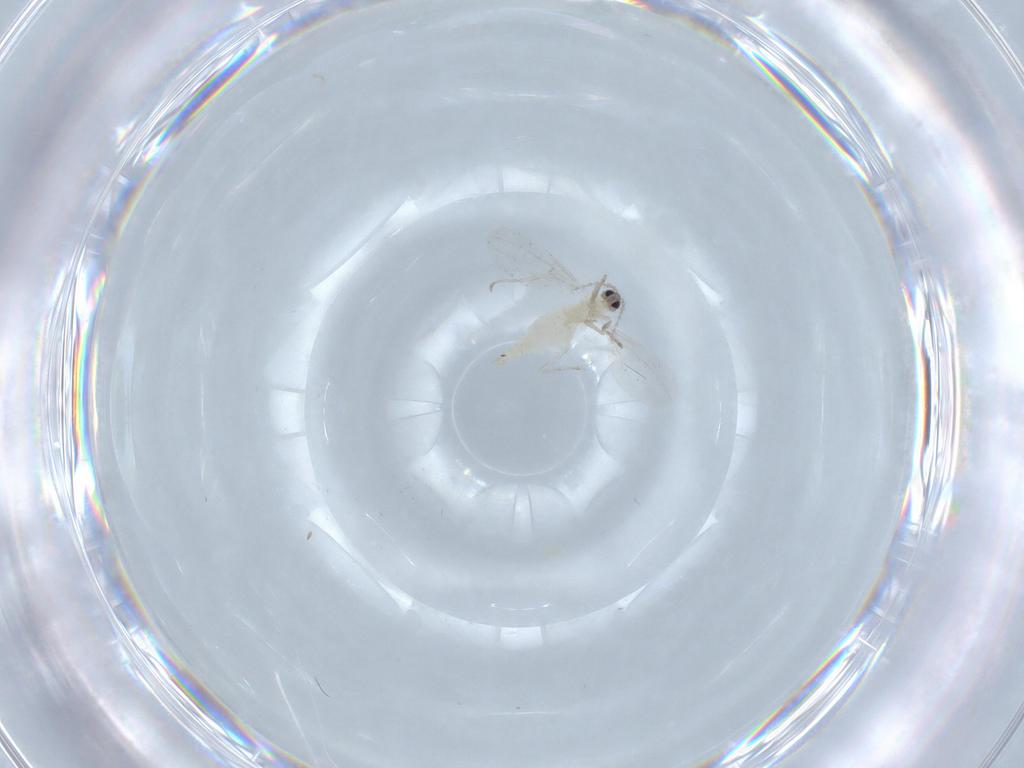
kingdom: Animalia
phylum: Arthropoda
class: Insecta
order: Diptera
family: Cecidomyiidae
